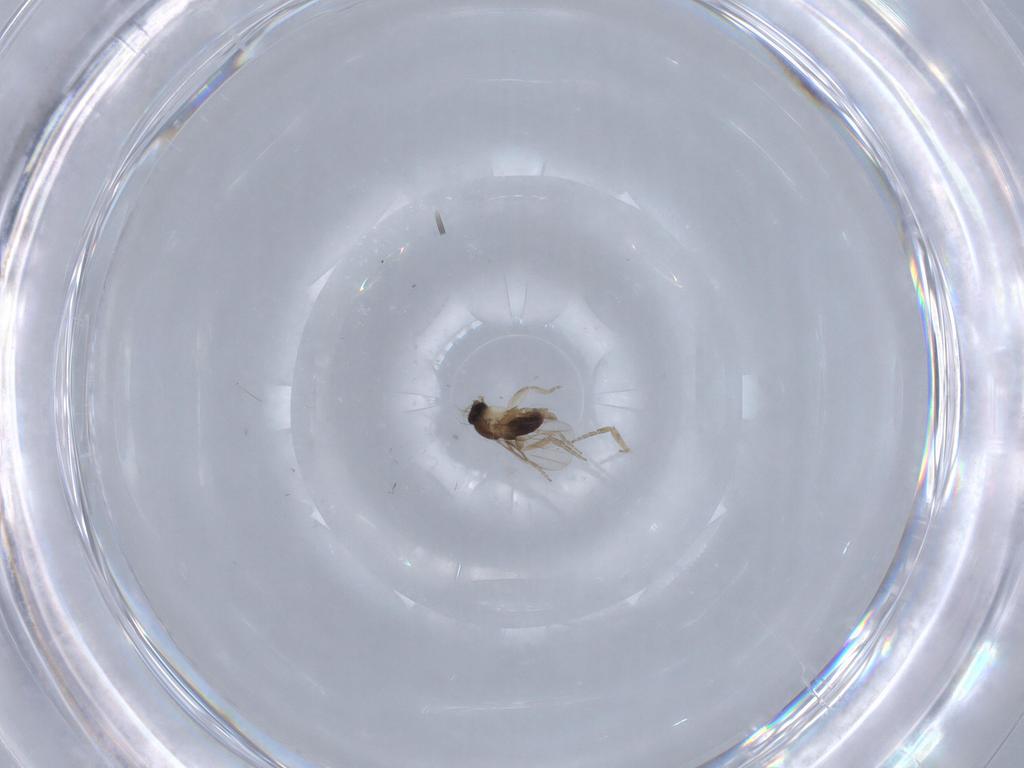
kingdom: Animalia
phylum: Arthropoda
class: Insecta
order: Diptera
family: Phoridae
